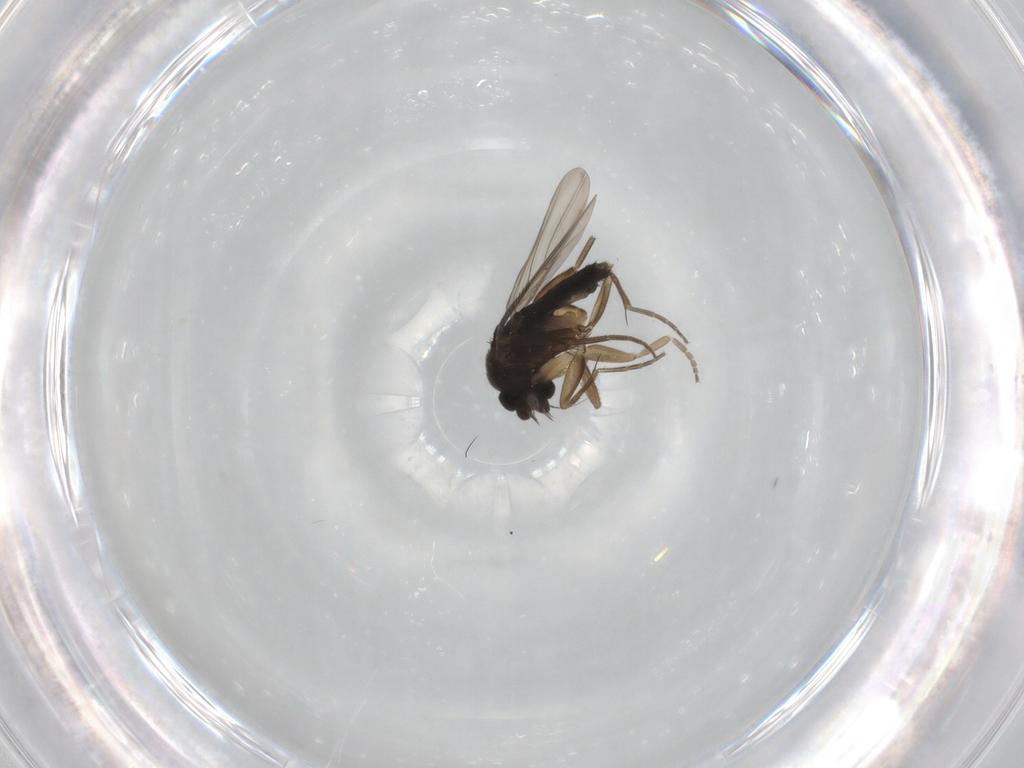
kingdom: Animalia
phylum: Arthropoda
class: Insecta
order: Diptera
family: Phoridae
